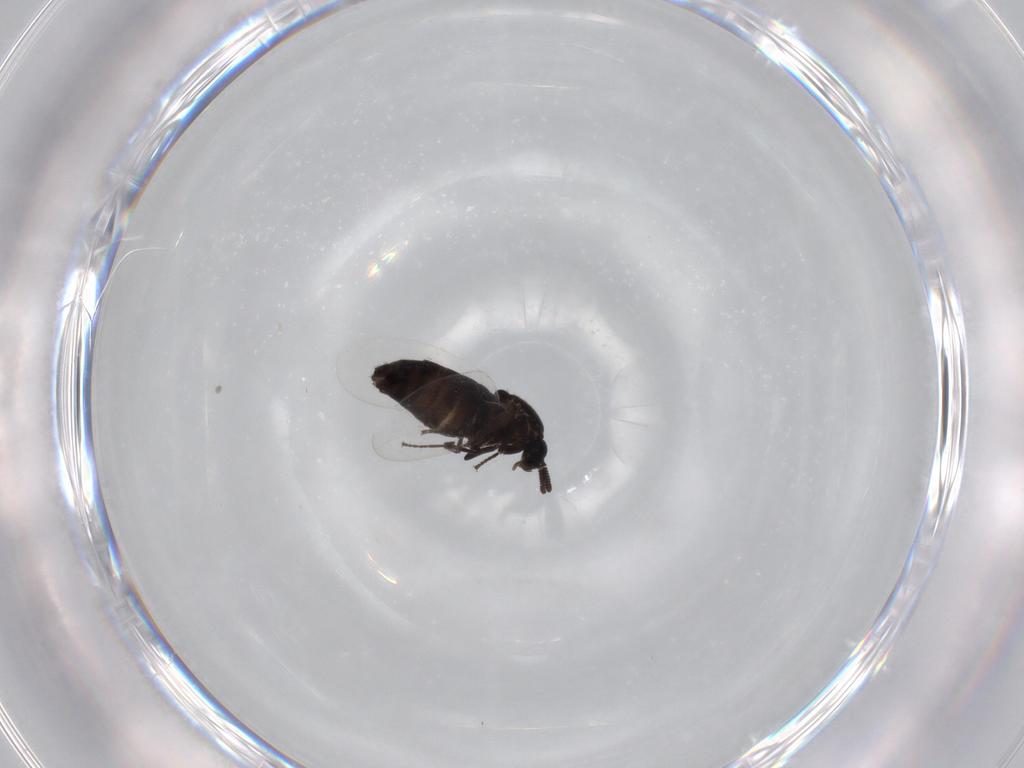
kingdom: Animalia
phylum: Arthropoda
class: Insecta
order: Diptera
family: Scatopsidae
